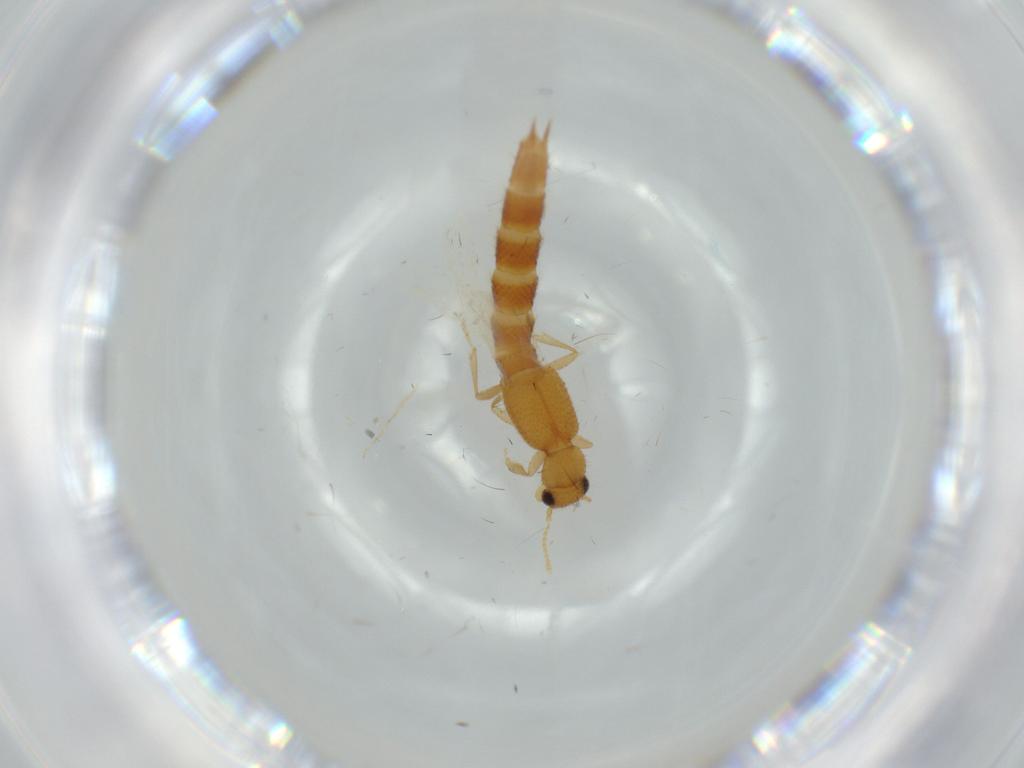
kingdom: Animalia
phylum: Arthropoda
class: Insecta
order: Coleoptera
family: Staphylinidae
